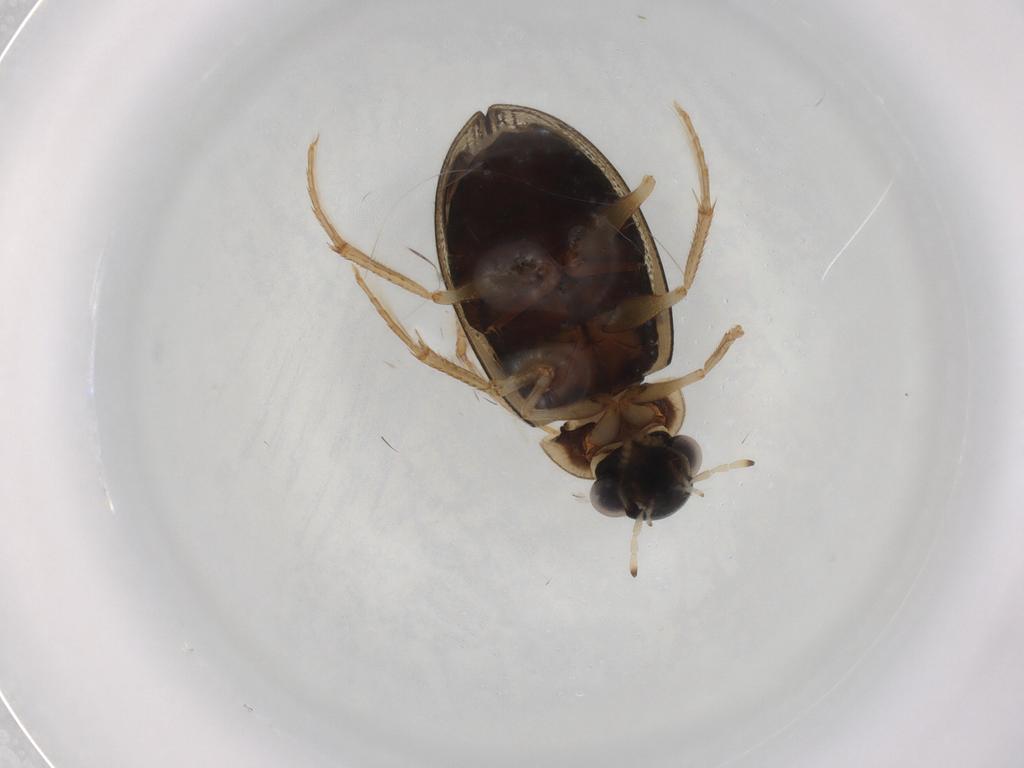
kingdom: Animalia
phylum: Arthropoda
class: Insecta
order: Coleoptera
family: Hydrophilidae
